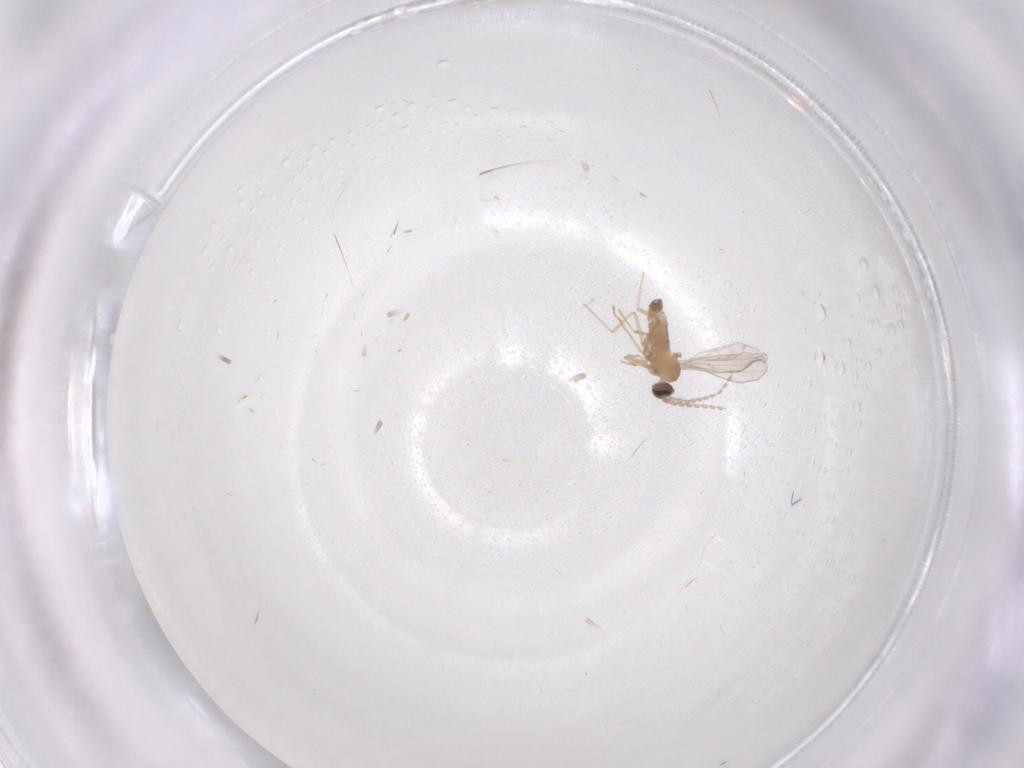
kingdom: Animalia
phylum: Arthropoda
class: Insecta
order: Diptera
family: Cecidomyiidae
